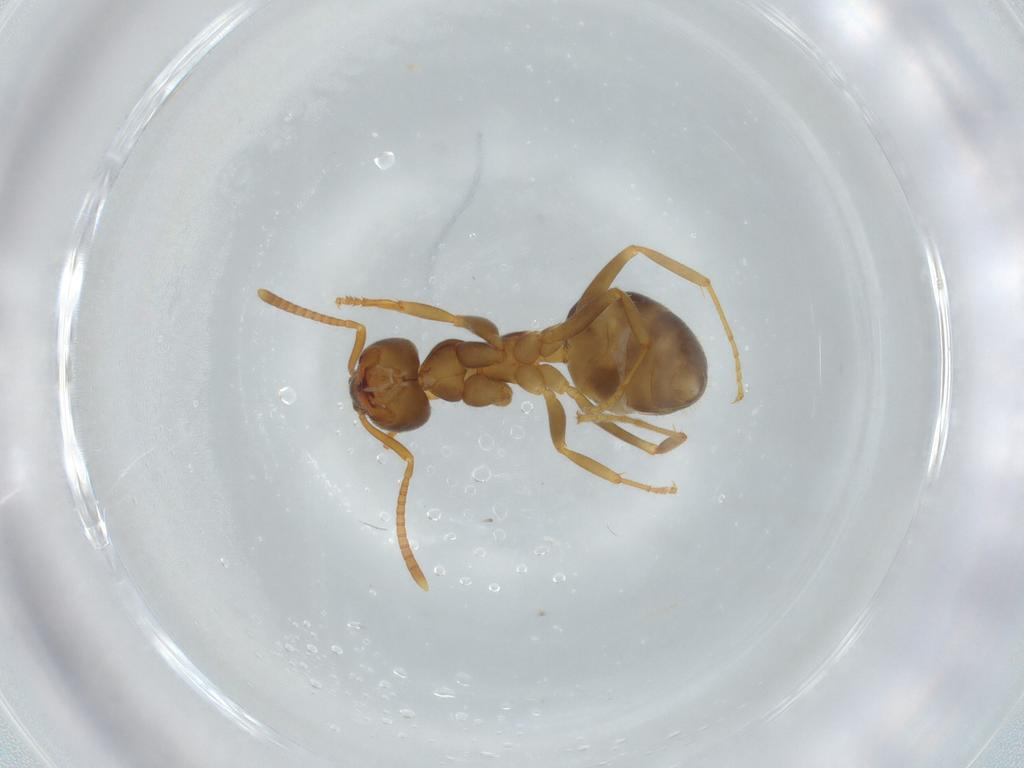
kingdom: Animalia
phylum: Arthropoda
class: Insecta
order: Hymenoptera
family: Formicidae
